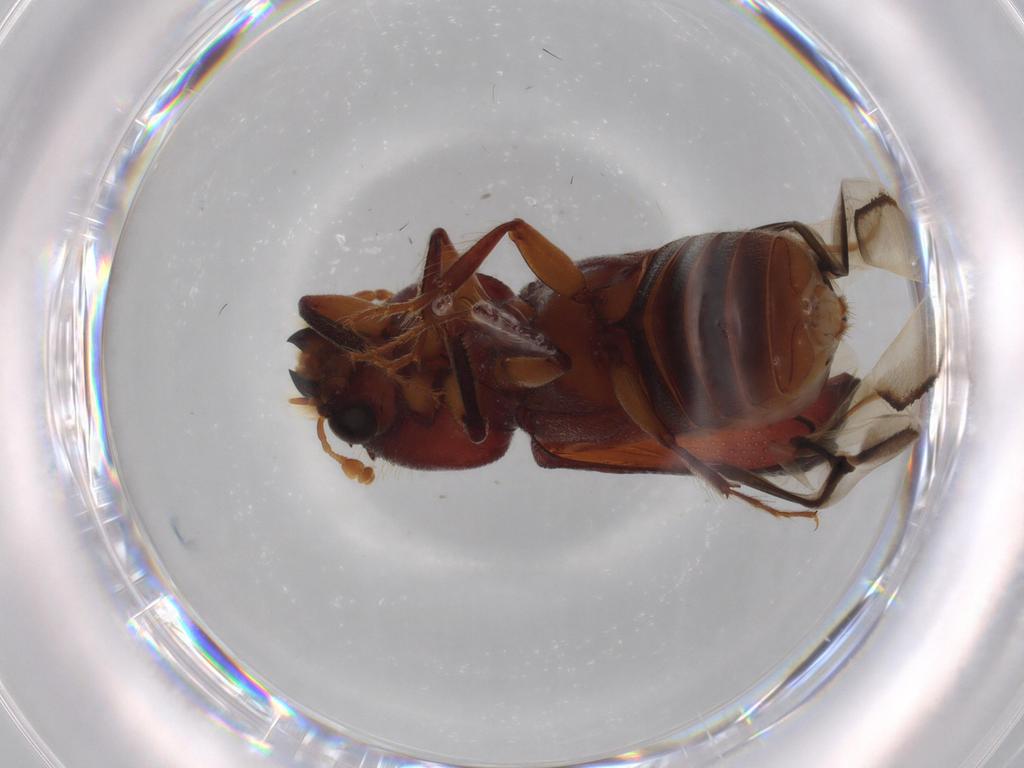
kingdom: Animalia
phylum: Arthropoda
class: Insecta
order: Coleoptera
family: Bostrichidae
